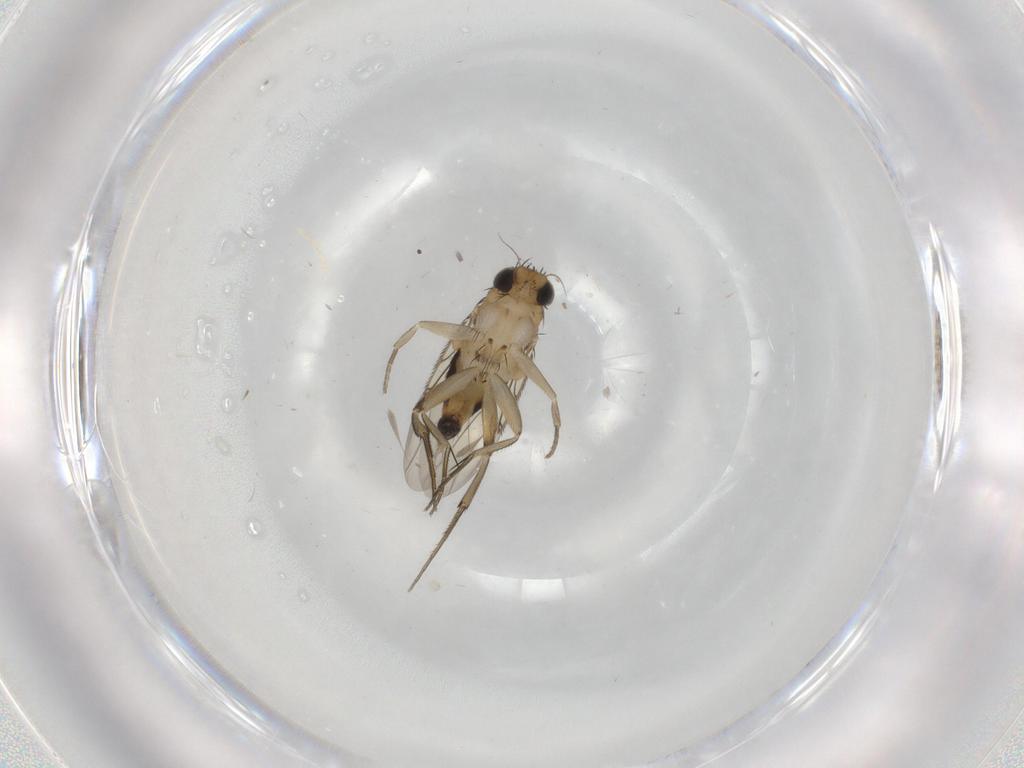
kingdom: Animalia
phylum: Arthropoda
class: Insecta
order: Diptera
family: Phoridae
